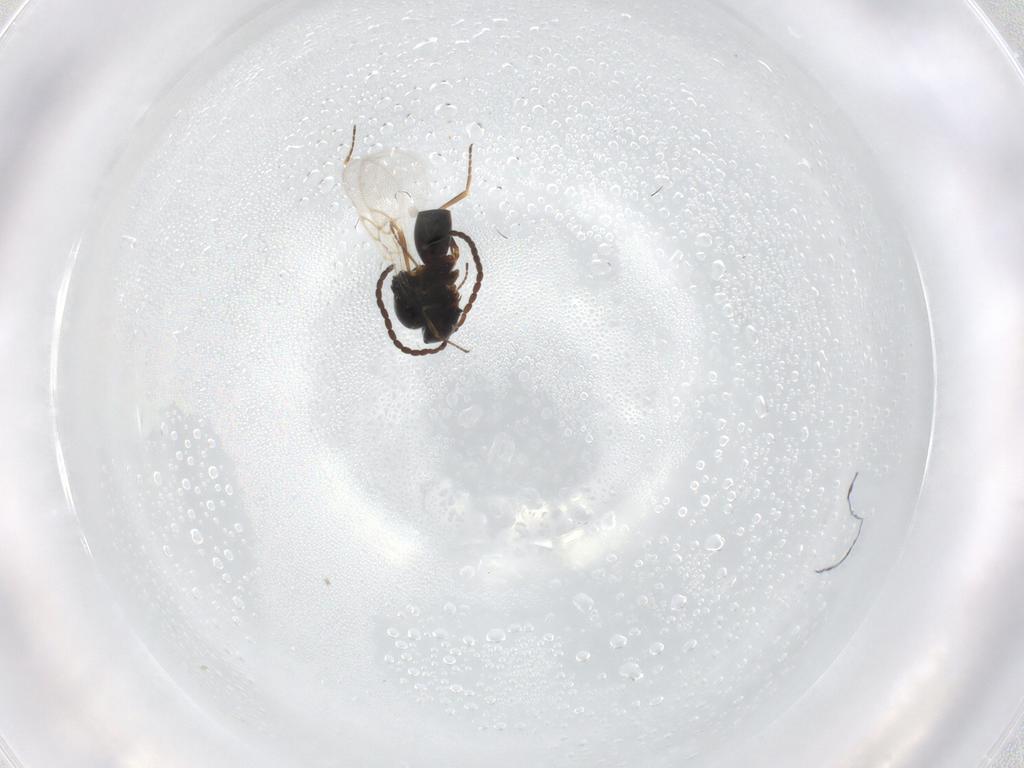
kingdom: Animalia
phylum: Arthropoda
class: Insecta
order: Hymenoptera
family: Figitidae
